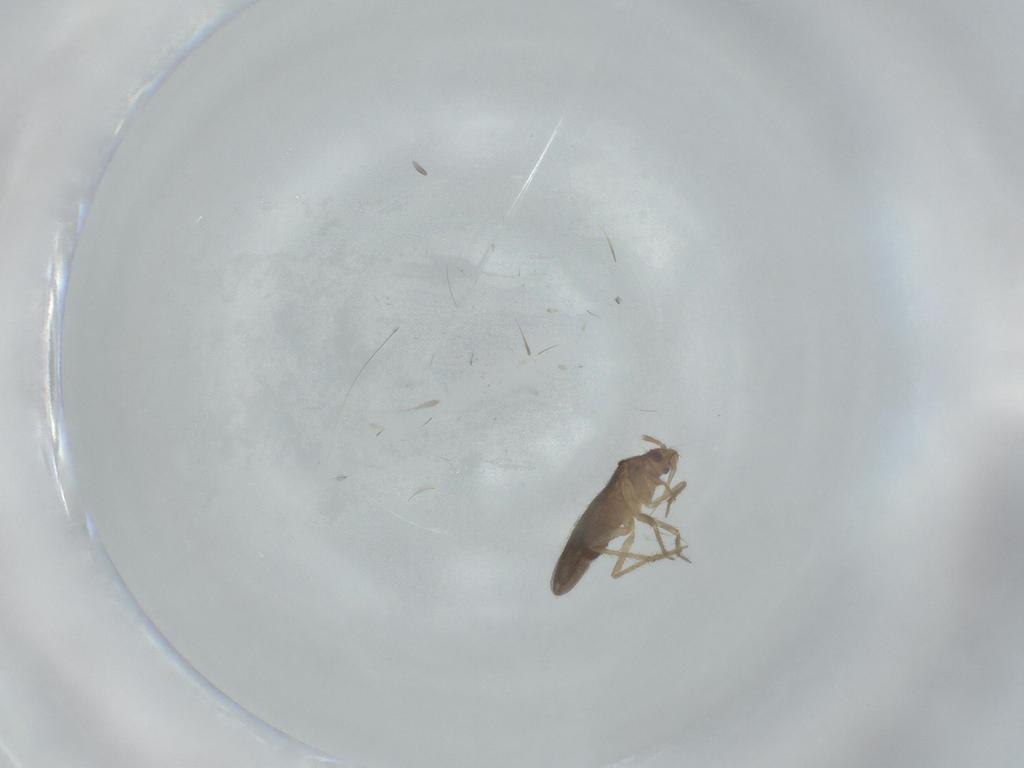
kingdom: Animalia
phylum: Arthropoda
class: Insecta
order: Hemiptera
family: Ceratocombidae
